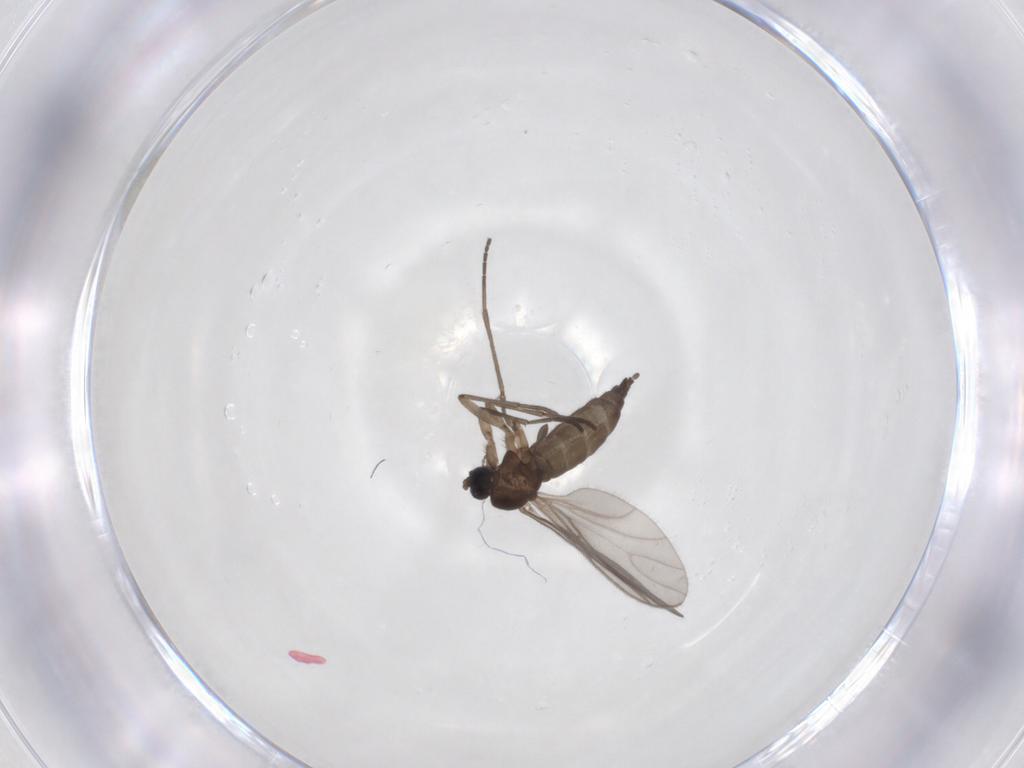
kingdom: Animalia
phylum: Arthropoda
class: Insecta
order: Diptera
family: Sciaridae
